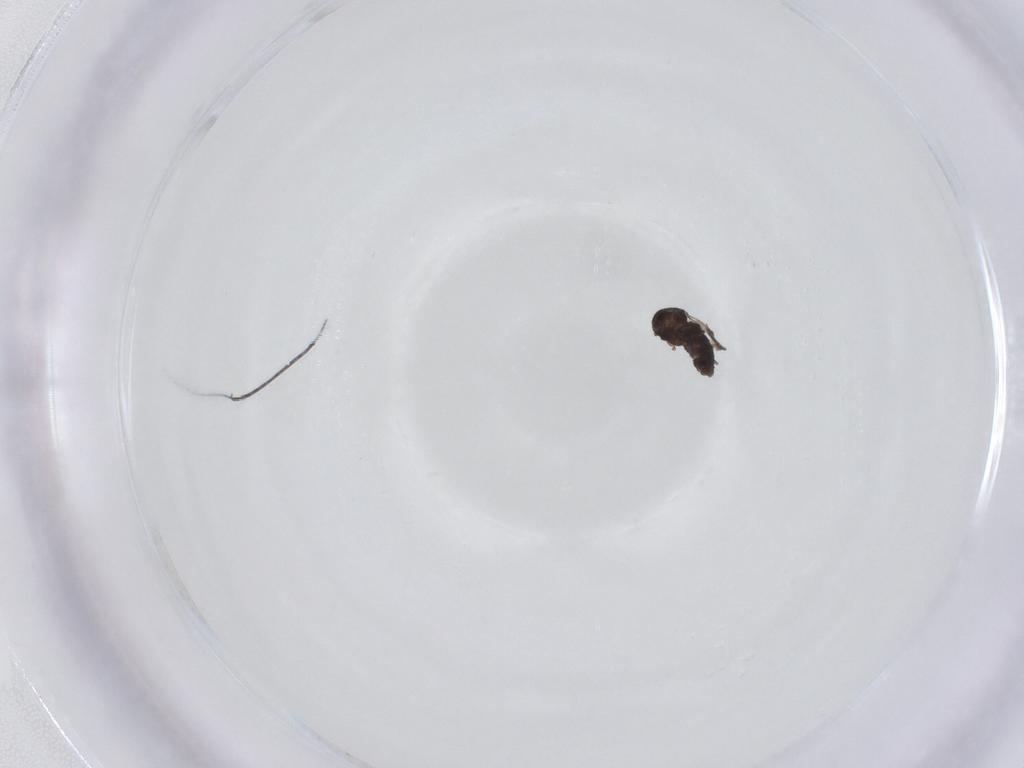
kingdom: Animalia
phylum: Arthropoda
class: Insecta
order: Diptera
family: Ceratopogonidae
